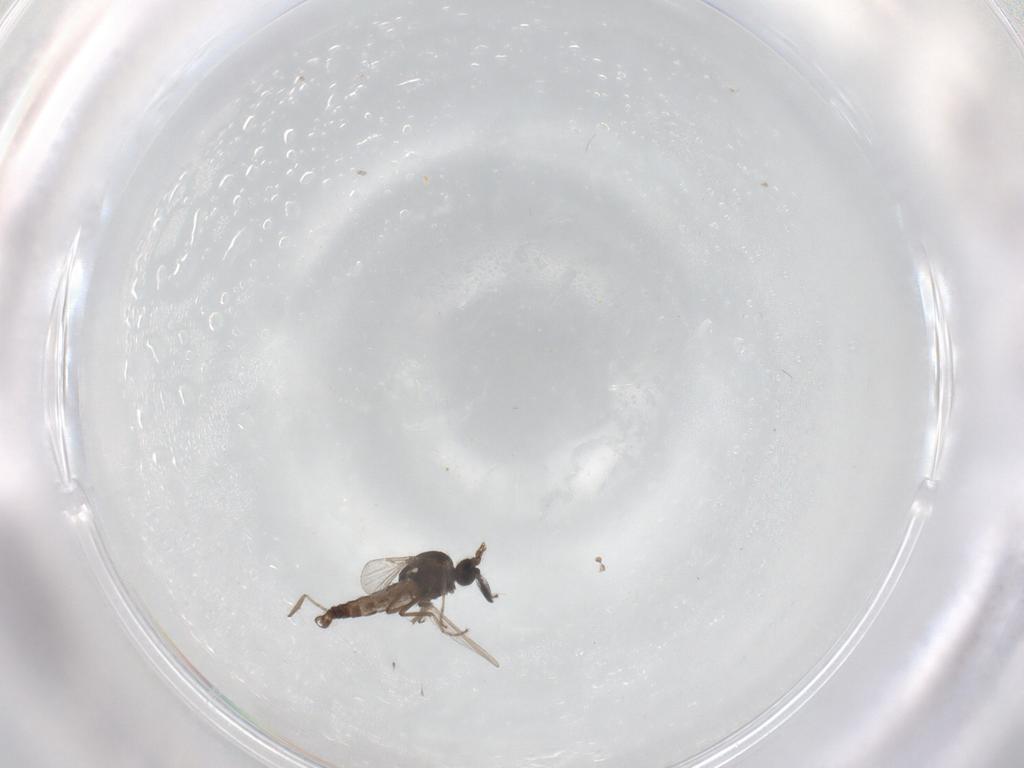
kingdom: Animalia
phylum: Arthropoda
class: Insecta
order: Diptera
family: Ceratopogonidae
